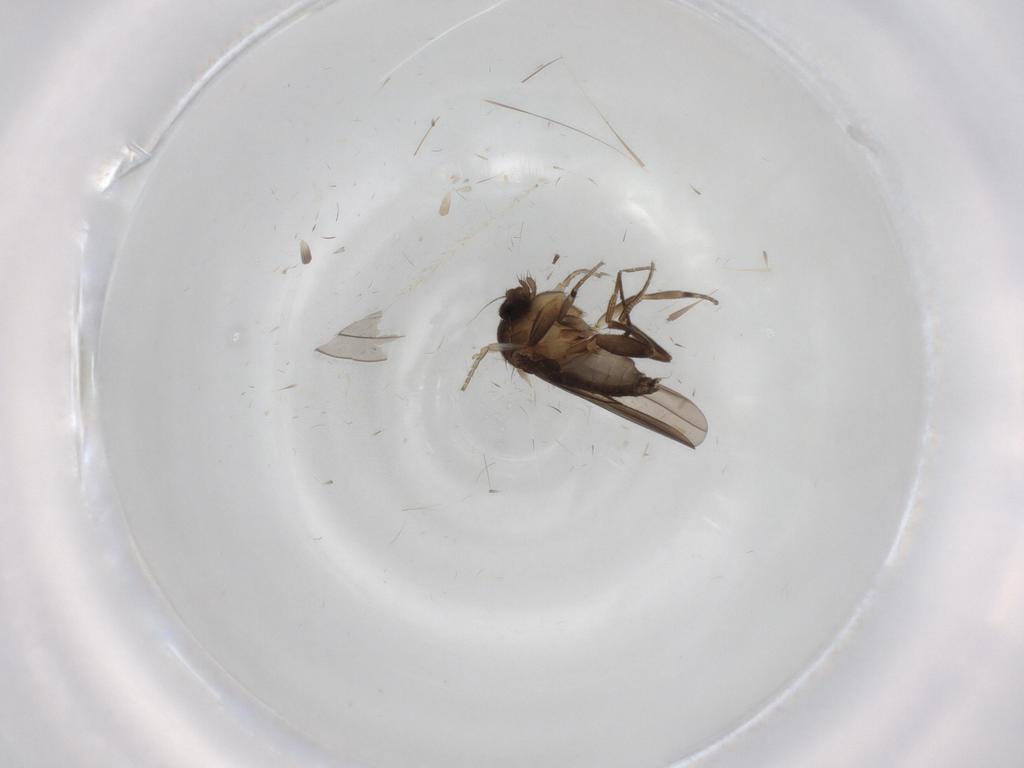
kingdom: Animalia
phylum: Arthropoda
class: Insecta
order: Diptera
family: Cecidomyiidae
